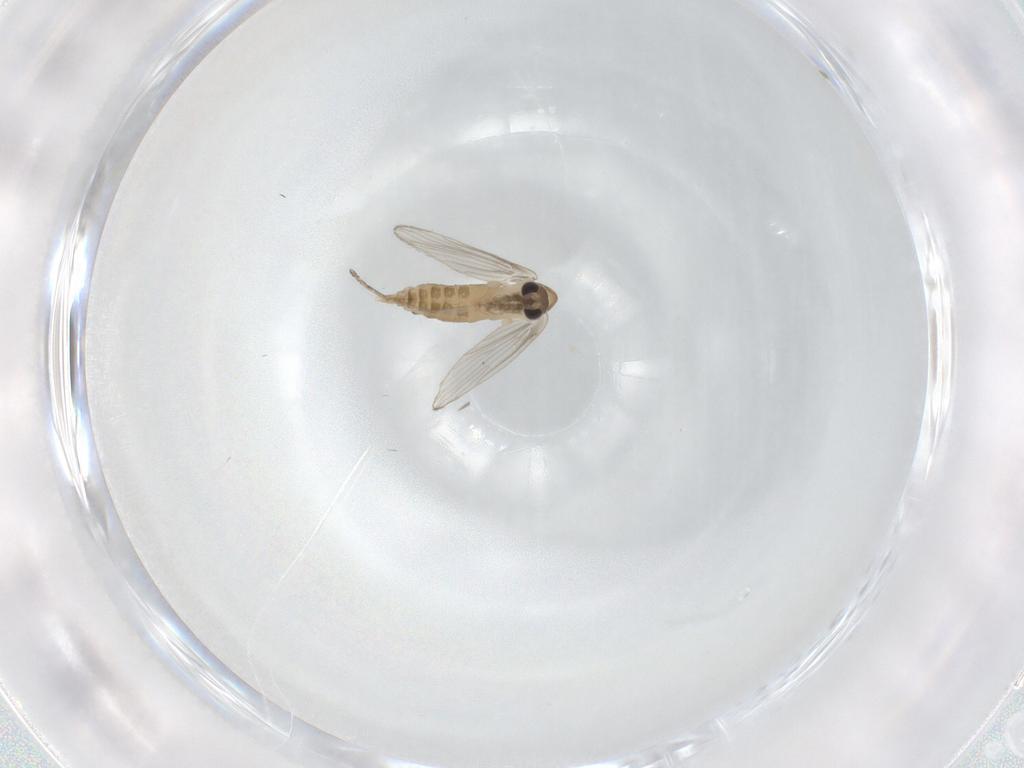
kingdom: Animalia
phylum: Arthropoda
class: Insecta
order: Diptera
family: Psychodidae
